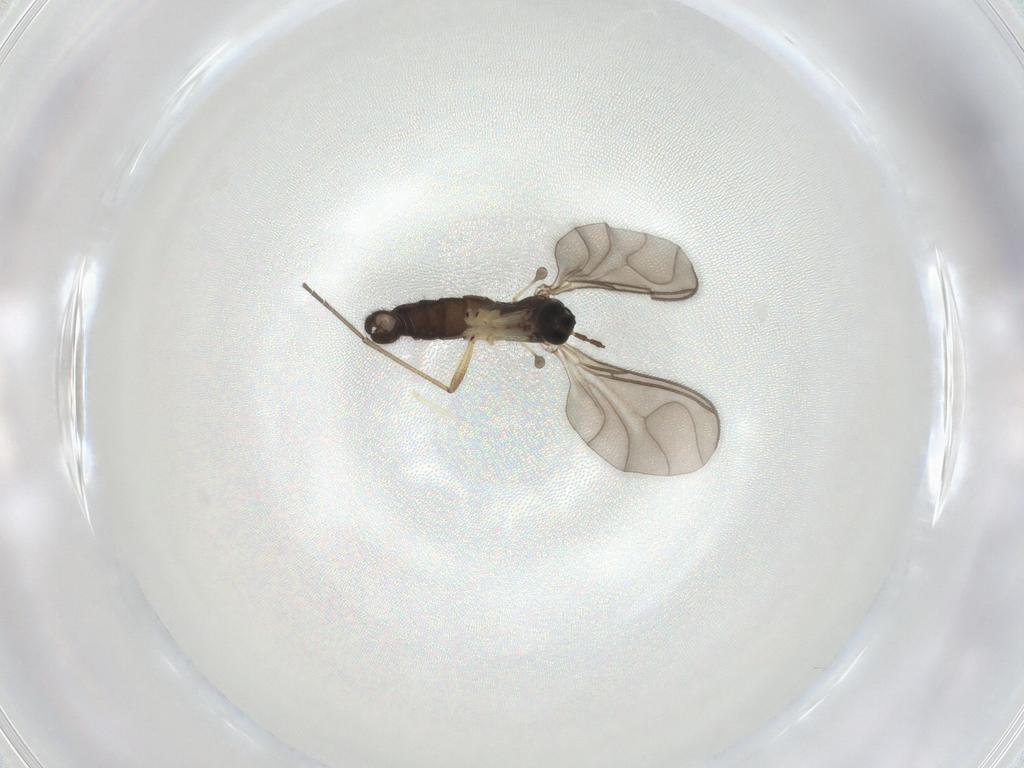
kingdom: Animalia
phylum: Arthropoda
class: Insecta
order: Diptera
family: Sciaridae
